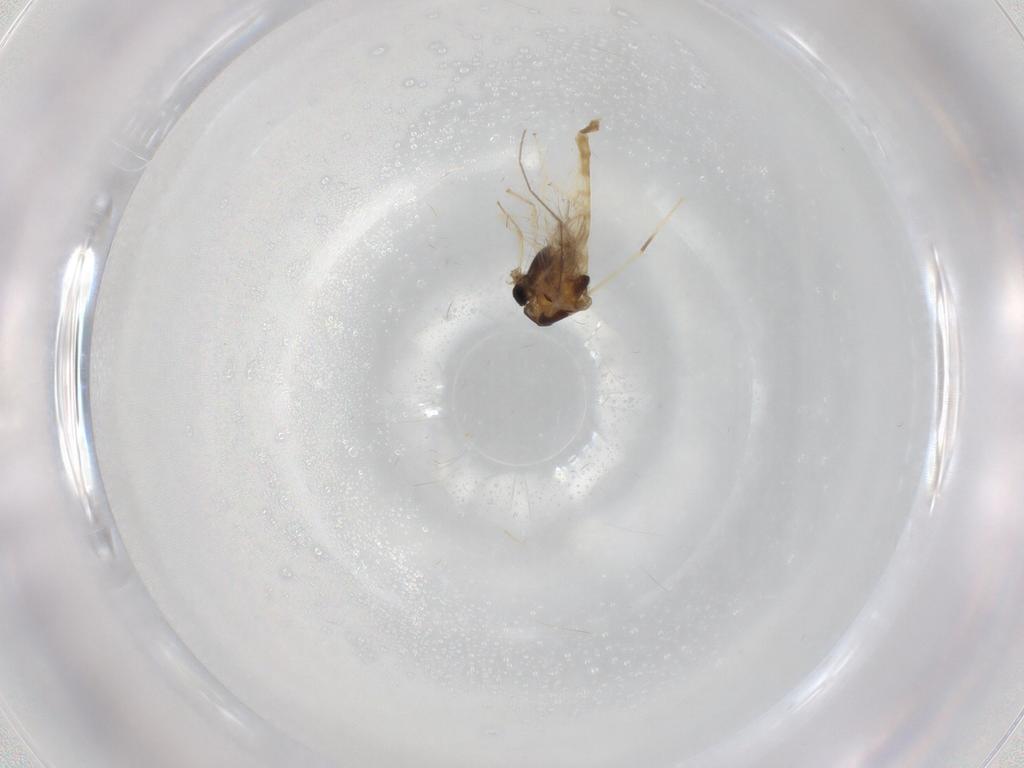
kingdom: Animalia
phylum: Arthropoda
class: Insecta
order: Diptera
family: Chironomidae
